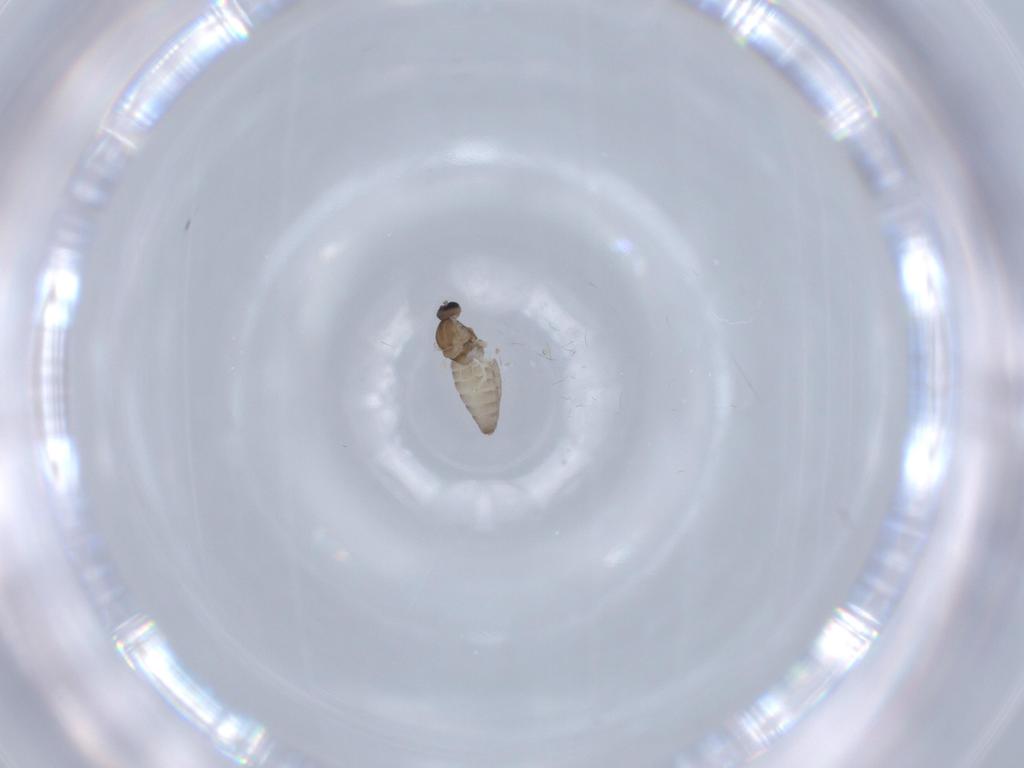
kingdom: Animalia
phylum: Arthropoda
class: Insecta
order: Diptera
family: Cecidomyiidae
